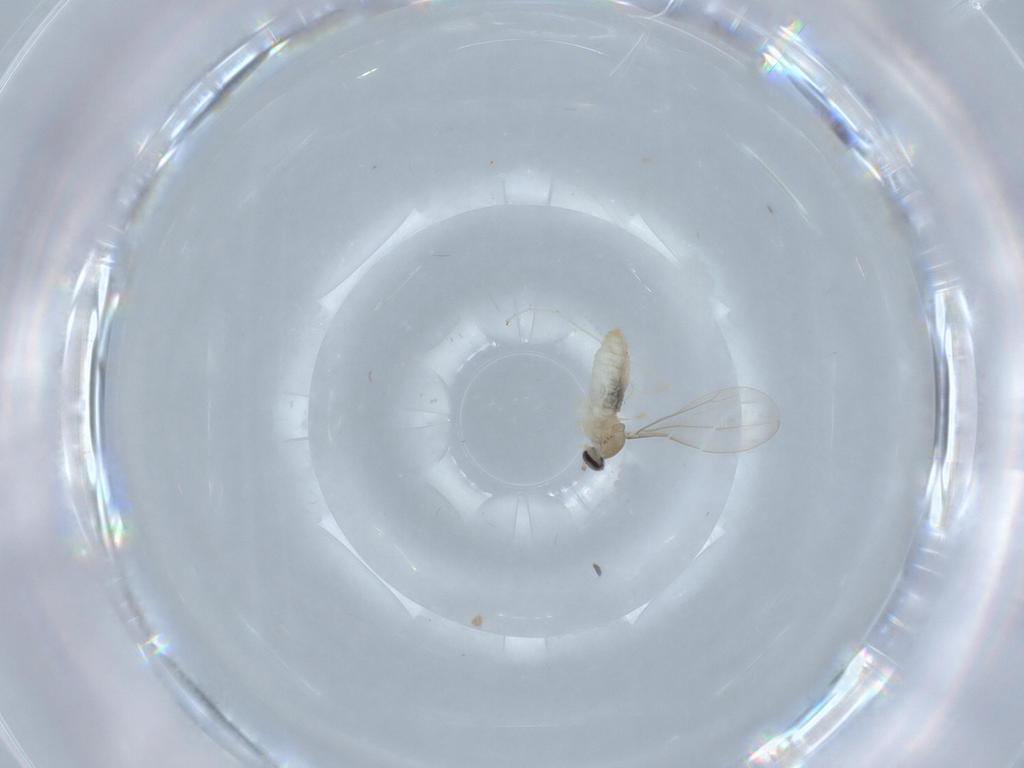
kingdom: Animalia
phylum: Arthropoda
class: Insecta
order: Diptera
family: Cecidomyiidae
